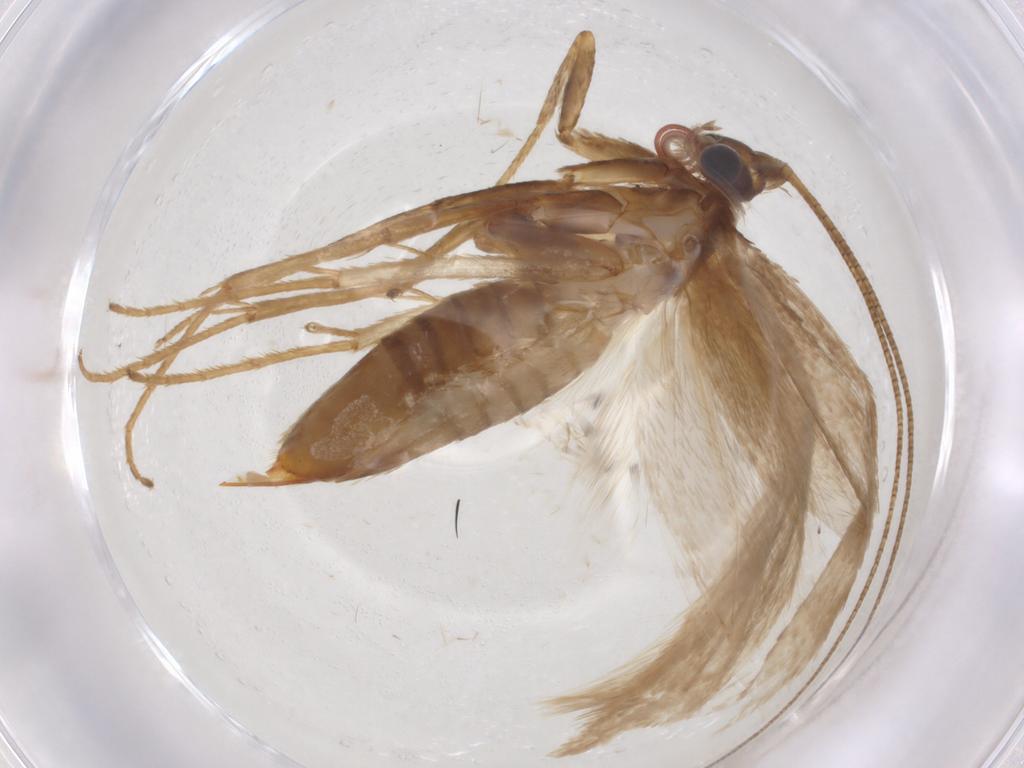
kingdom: Animalia
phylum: Arthropoda
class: Insecta
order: Lepidoptera
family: Adelidae
